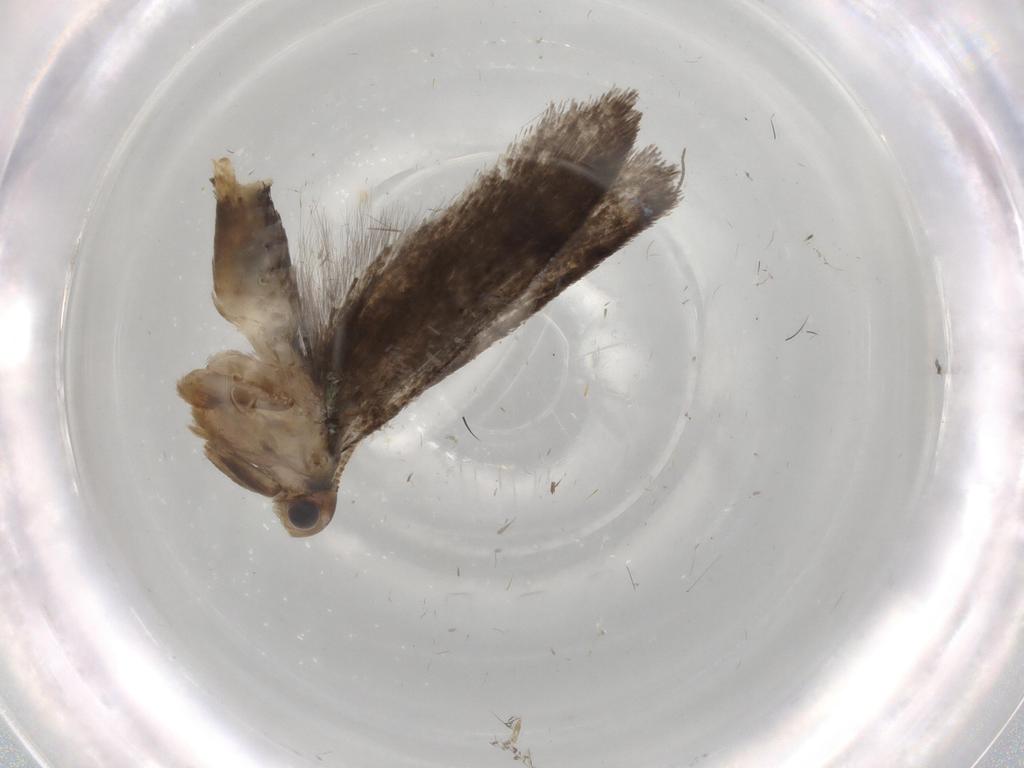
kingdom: Animalia
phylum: Arthropoda
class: Insecta
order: Lepidoptera
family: Tineidae
